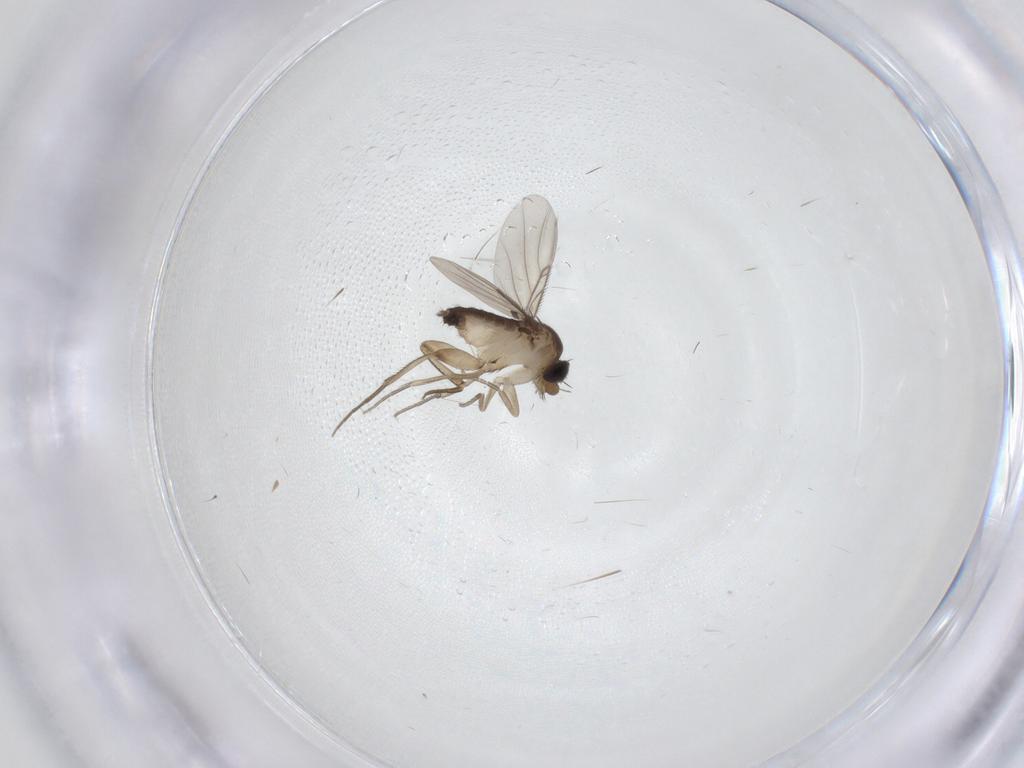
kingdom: Animalia
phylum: Arthropoda
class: Insecta
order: Diptera
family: Phoridae
